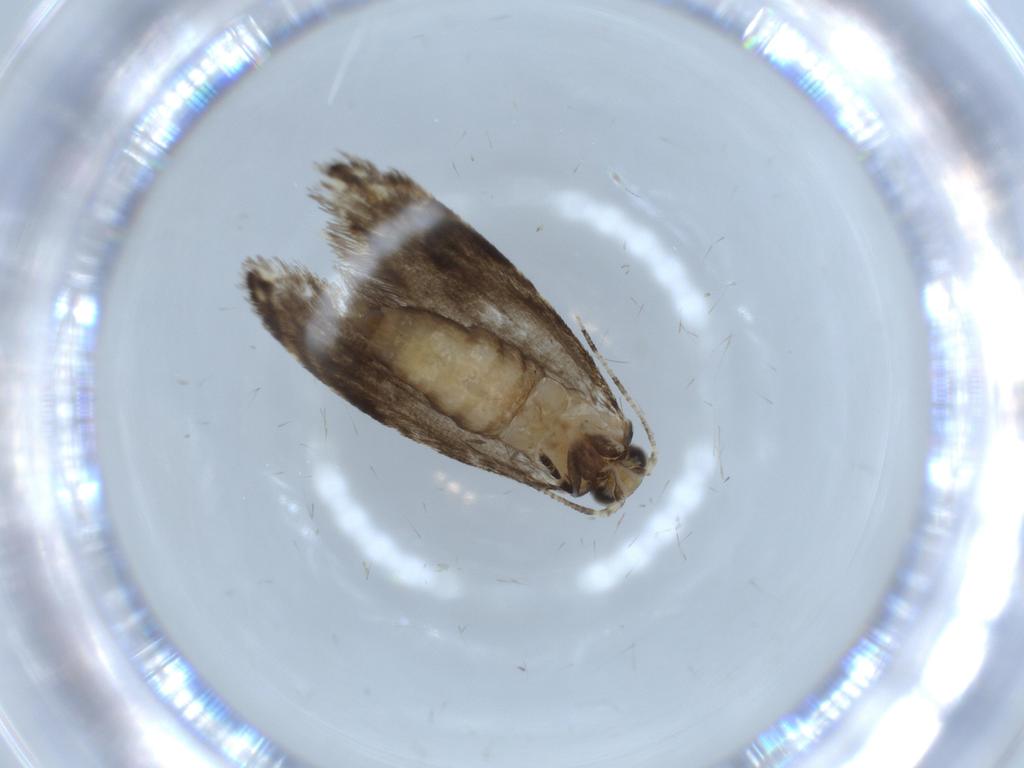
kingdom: Animalia
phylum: Arthropoda
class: Insecta
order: Lepidoptera
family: Tineidae
